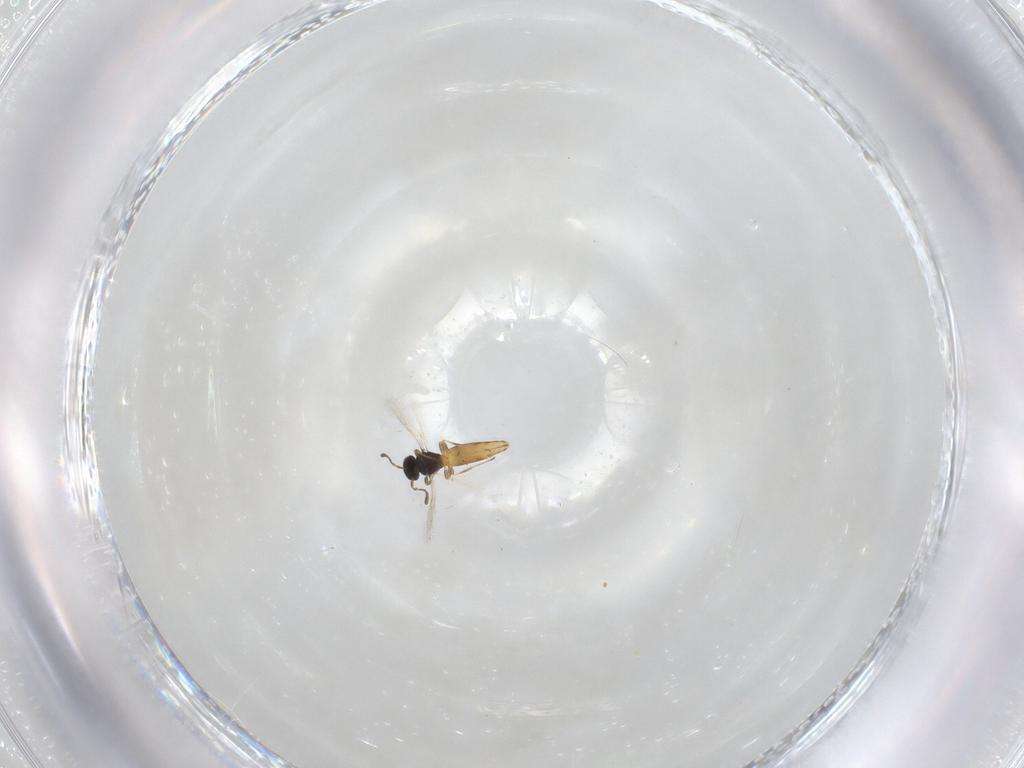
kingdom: Animalia
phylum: Arthropoda
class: Insecta
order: Hymenoptera
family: Scelionidae
